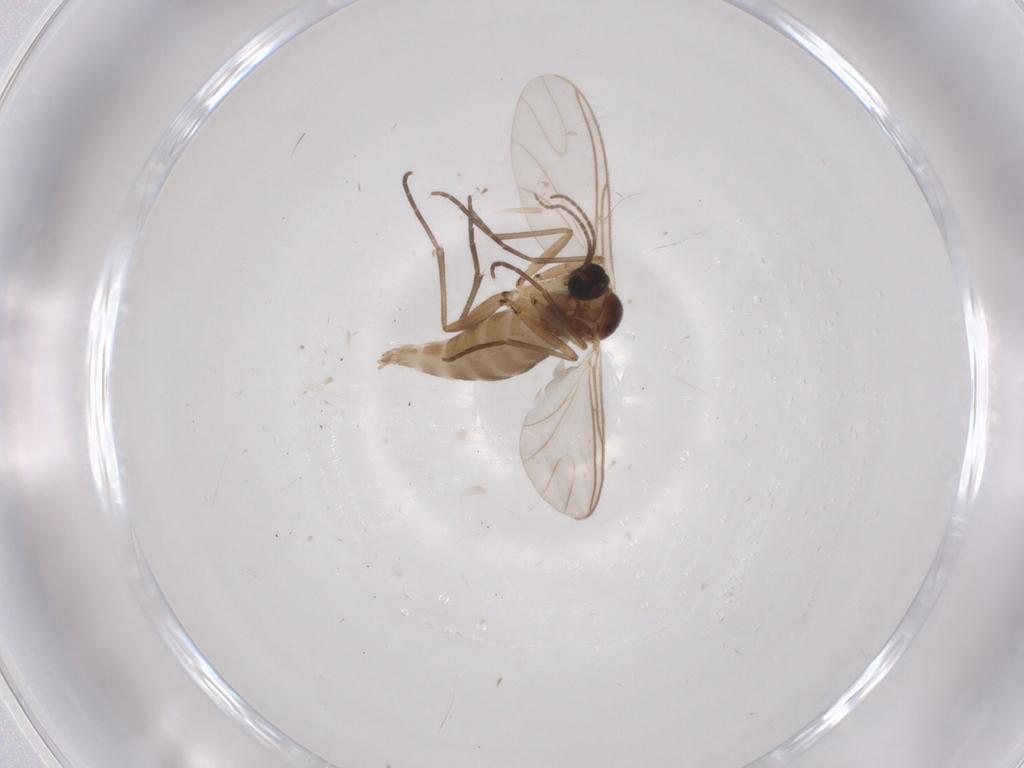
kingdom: Animalia
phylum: Arthropoda
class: Insecta
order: Diptera
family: Sciaridae
